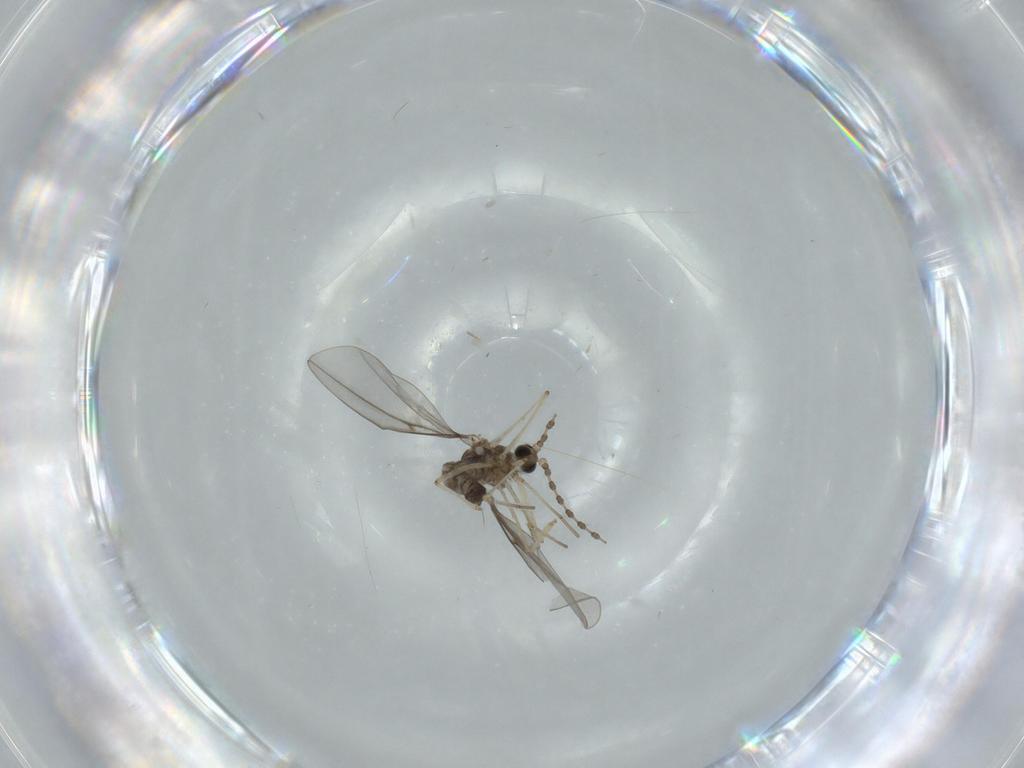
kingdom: Animalia
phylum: Arthropoda
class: Insecta
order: Diptera
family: Cecidomyiidae
